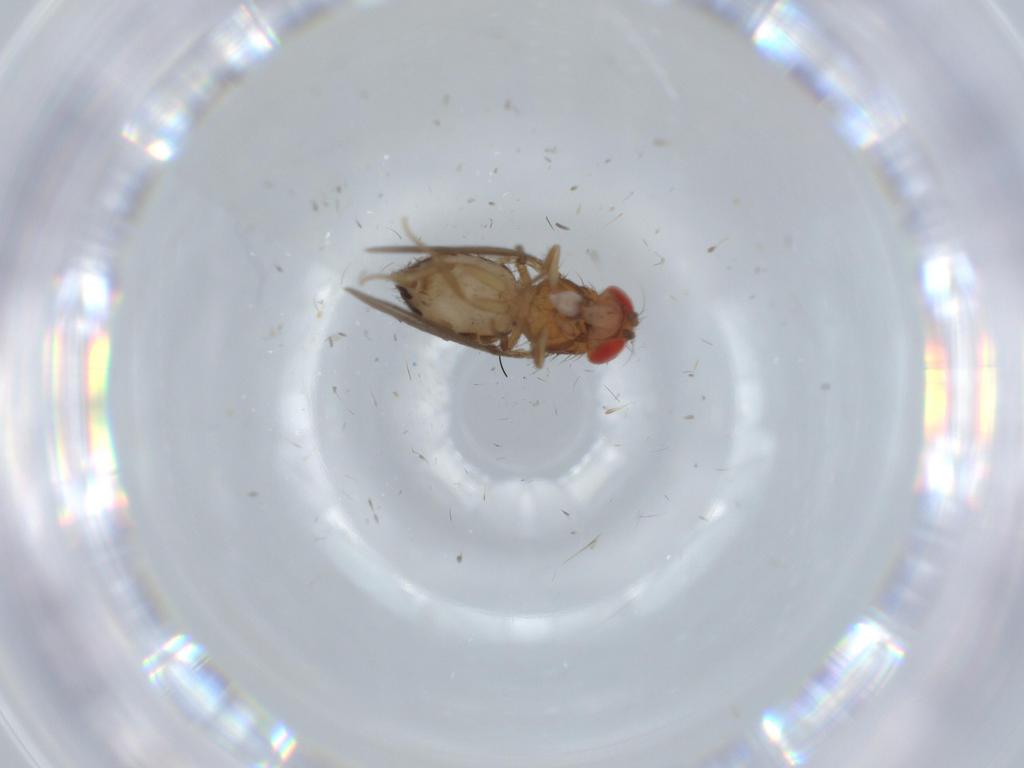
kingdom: Animalia
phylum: Arthropoda
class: Insecta
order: Diptera
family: Drosophilidae
